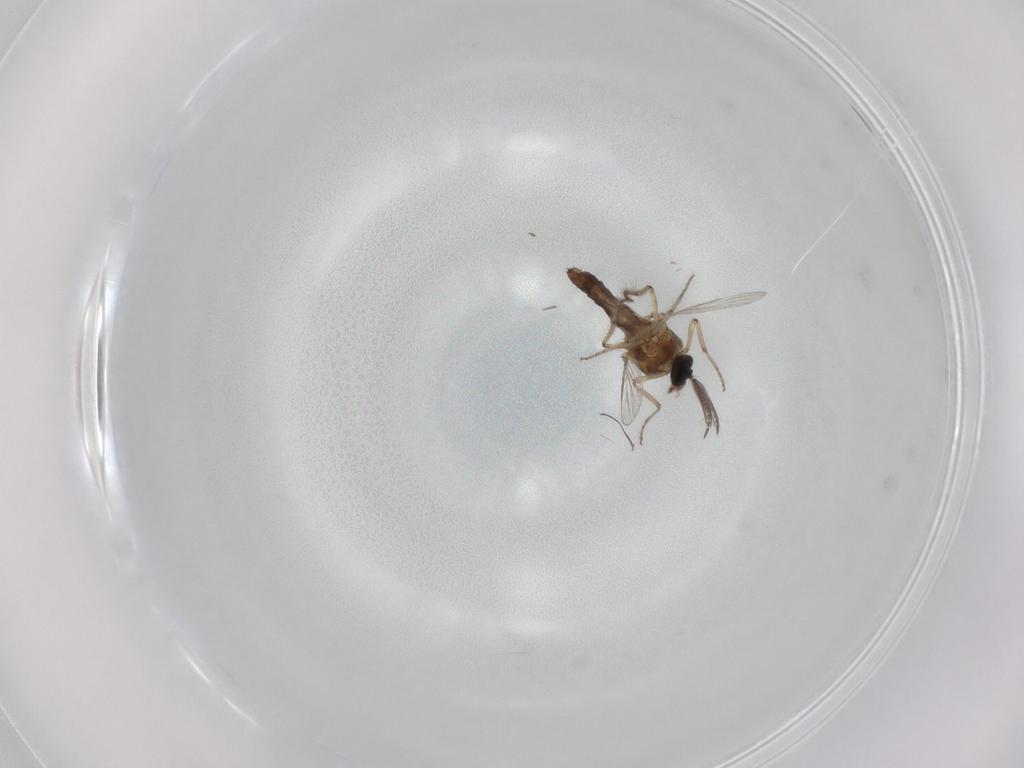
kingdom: Animalia
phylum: Arthropoda
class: Insecta
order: Diptera
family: Ceratopogonidae
